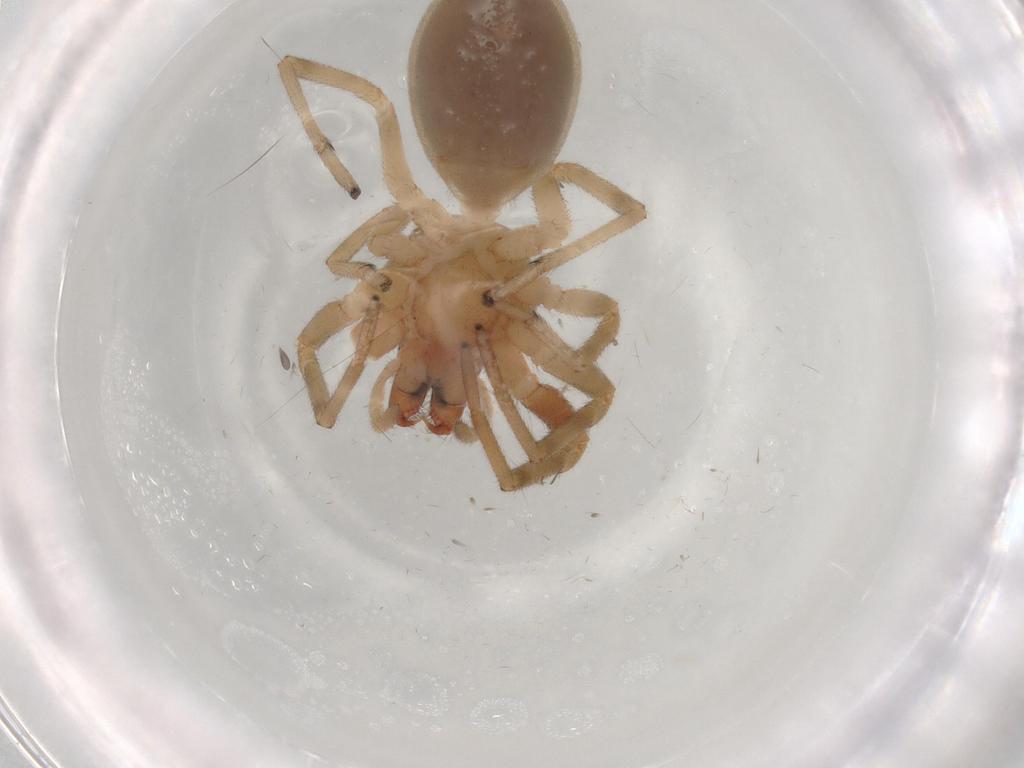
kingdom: Animalia
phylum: Arthropoda
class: Arachnida
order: Araneae
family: Trachelidae
